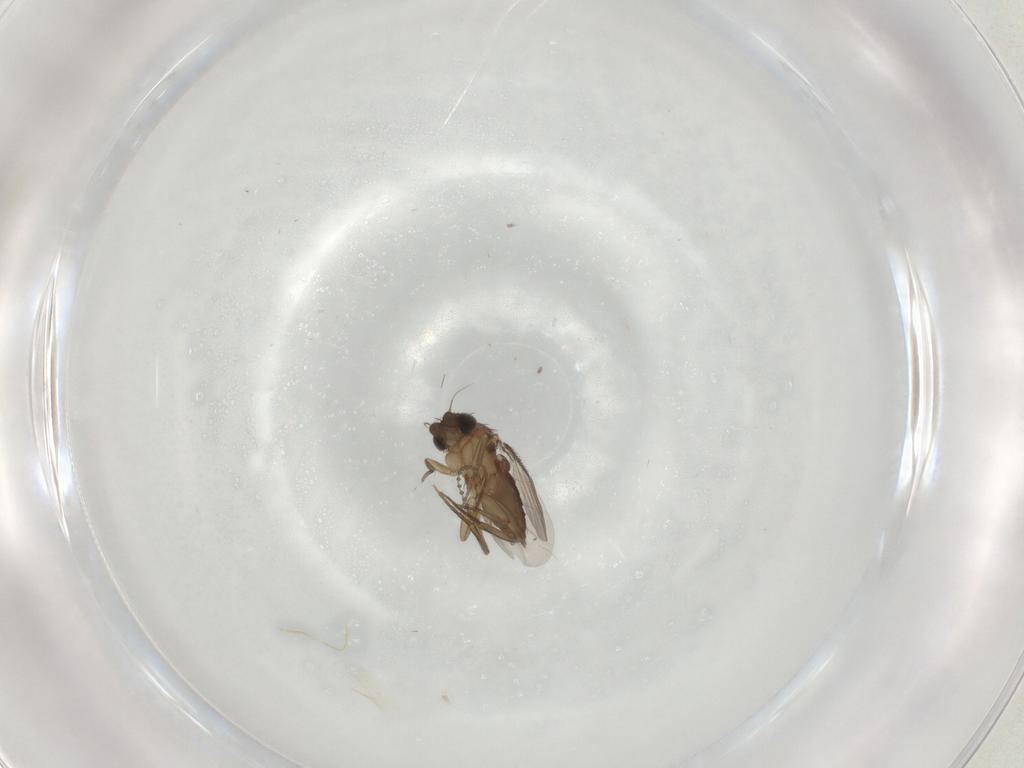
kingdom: Animalia
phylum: Arthropoda
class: Insecta
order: Diptera
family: Phoridae
